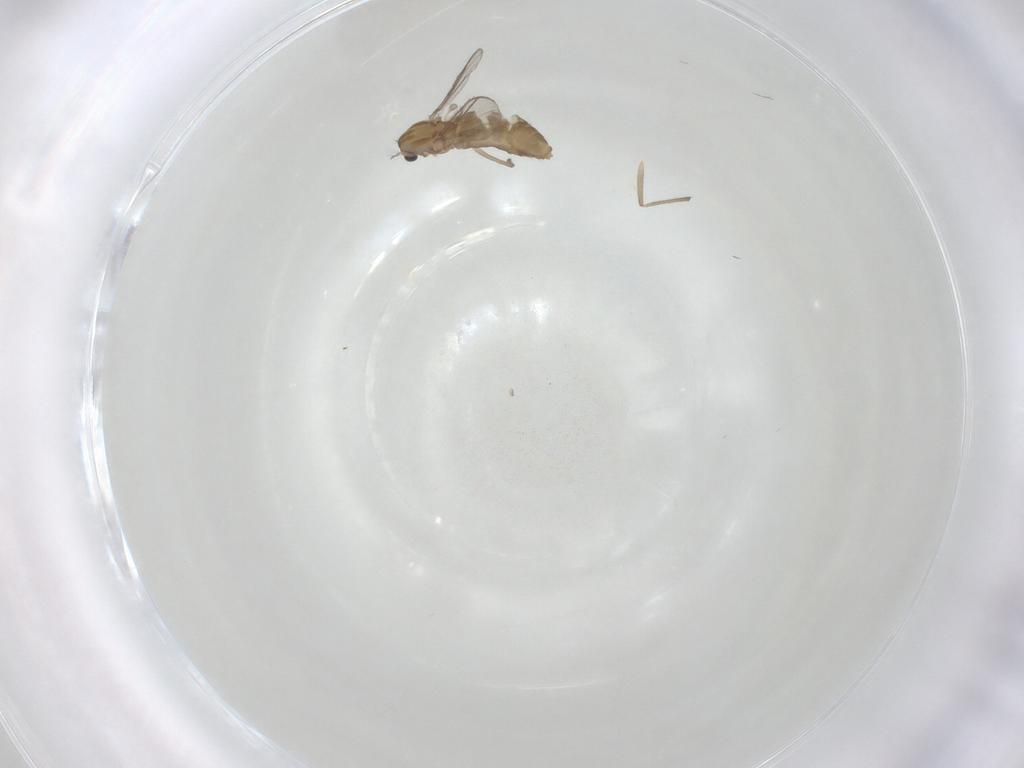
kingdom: Animalia
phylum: Arthropoda
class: Insecta
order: Diptera
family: Chironomidae
